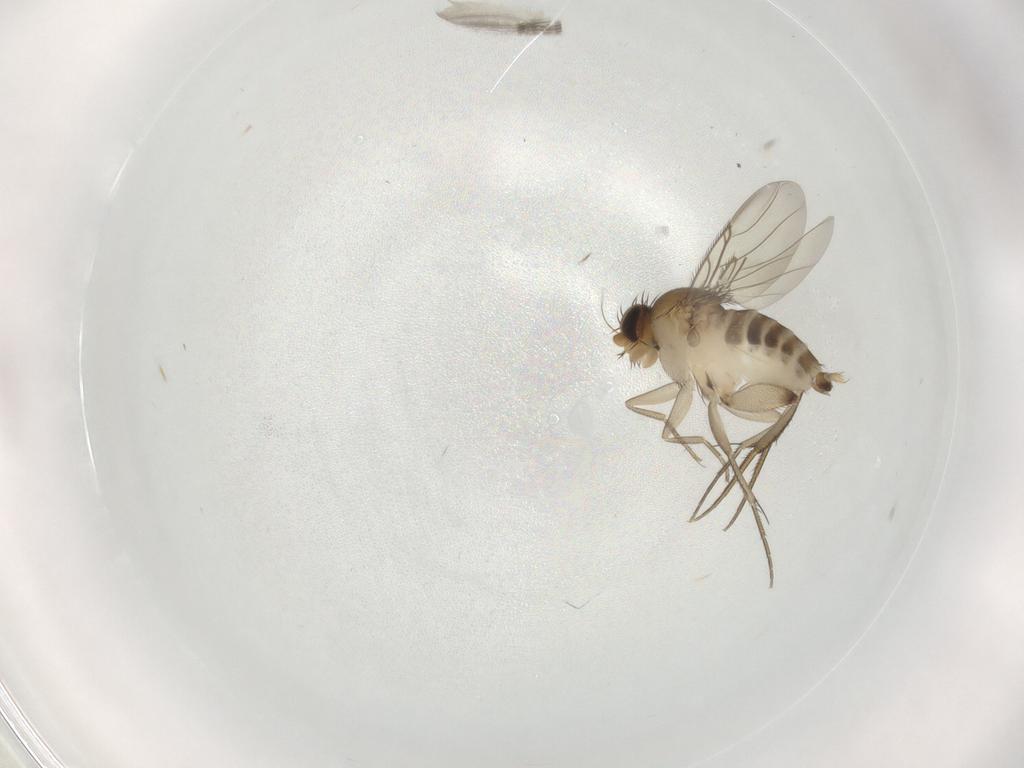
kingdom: Animalia
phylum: Arthropoda
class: Insecta
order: Diptera
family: Phoridae
